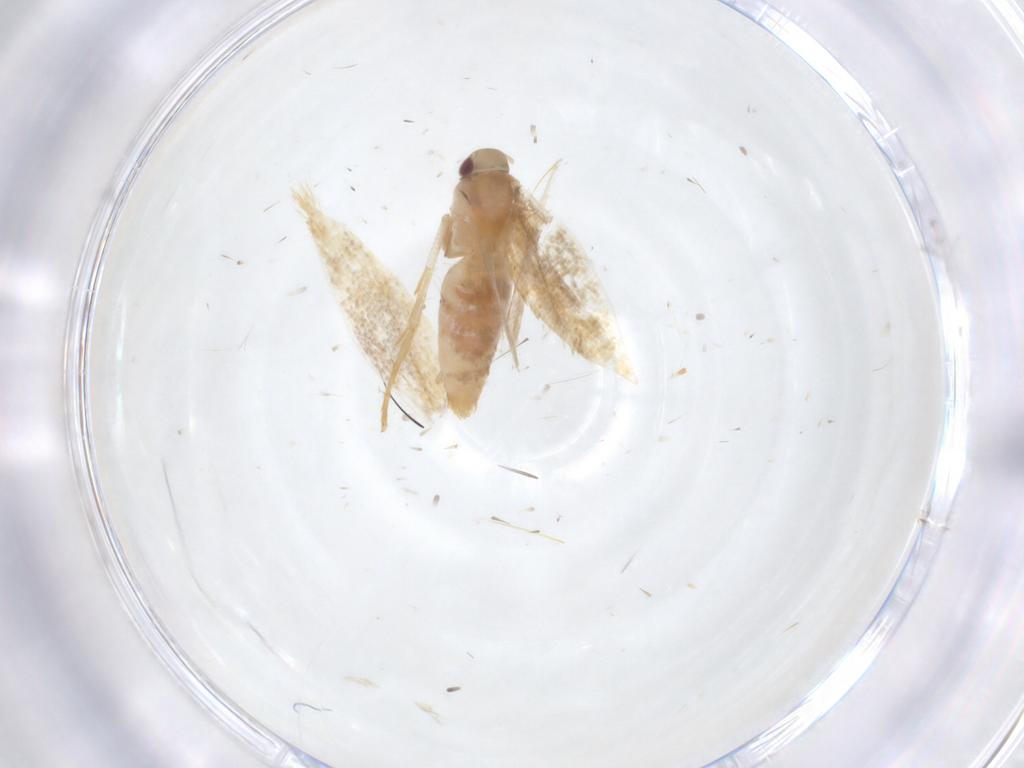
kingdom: Animalia
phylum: Arthropoda
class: Insecta
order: Lepidoptera
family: Gelechiidae
